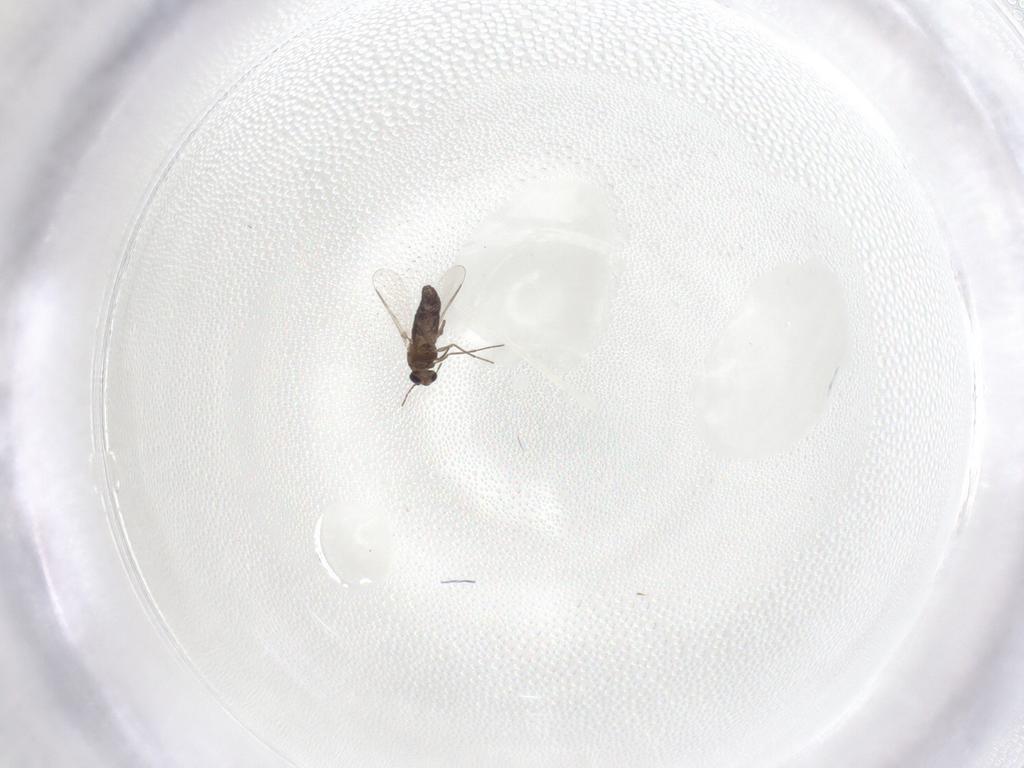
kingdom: Animalia
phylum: Arthropoda
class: Insecta
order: Diptera
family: Chironomidae
